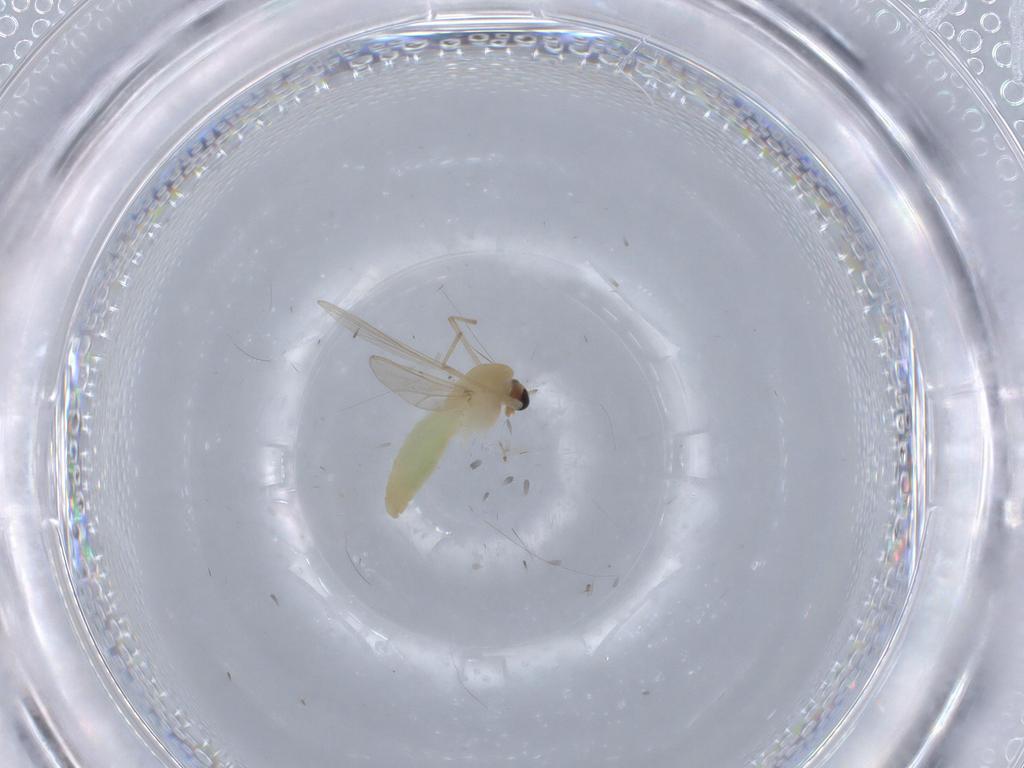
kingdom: Animalia
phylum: Arthropoda
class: Insecta
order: Diptera
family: Chironomidae
